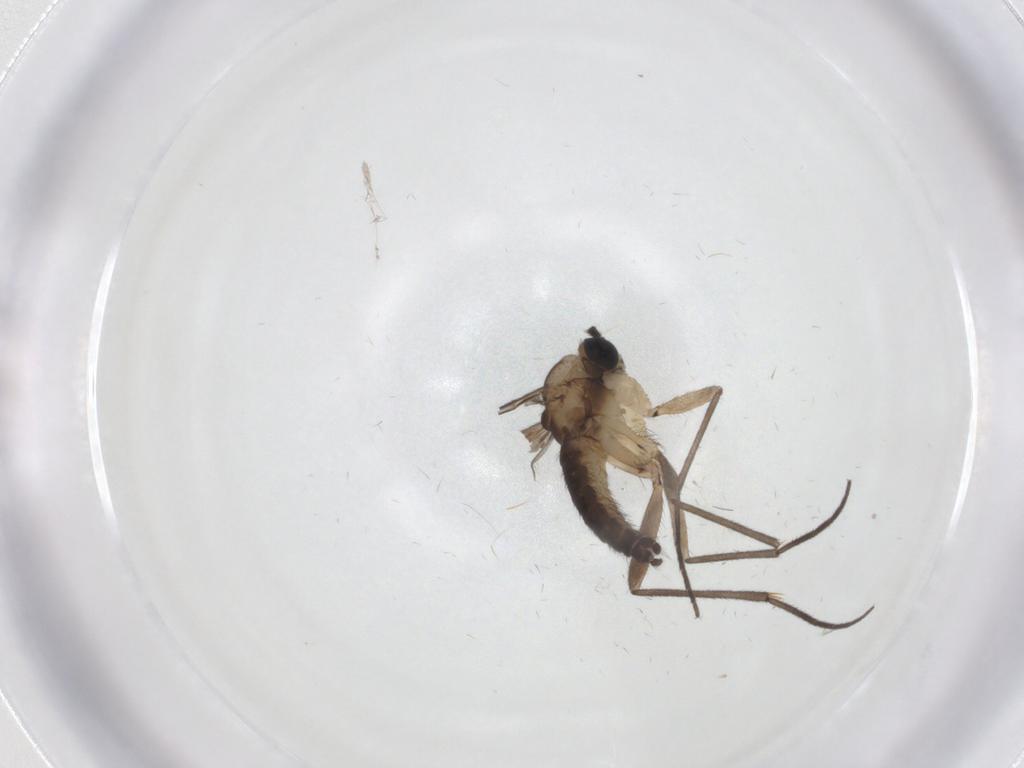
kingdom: Animalia
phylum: Arthropoda
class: Insecta
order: Diptera
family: Sciaridae
